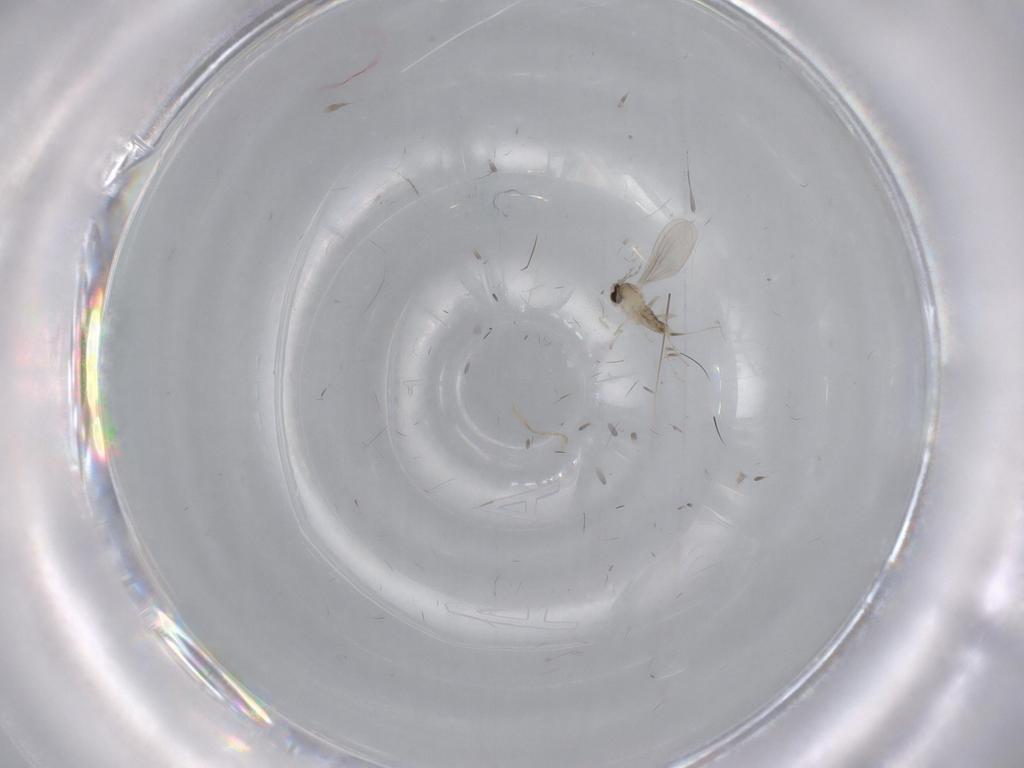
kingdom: Animalia
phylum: Arthropoda
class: Insecta
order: Diptera
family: Cecidomyiidae
